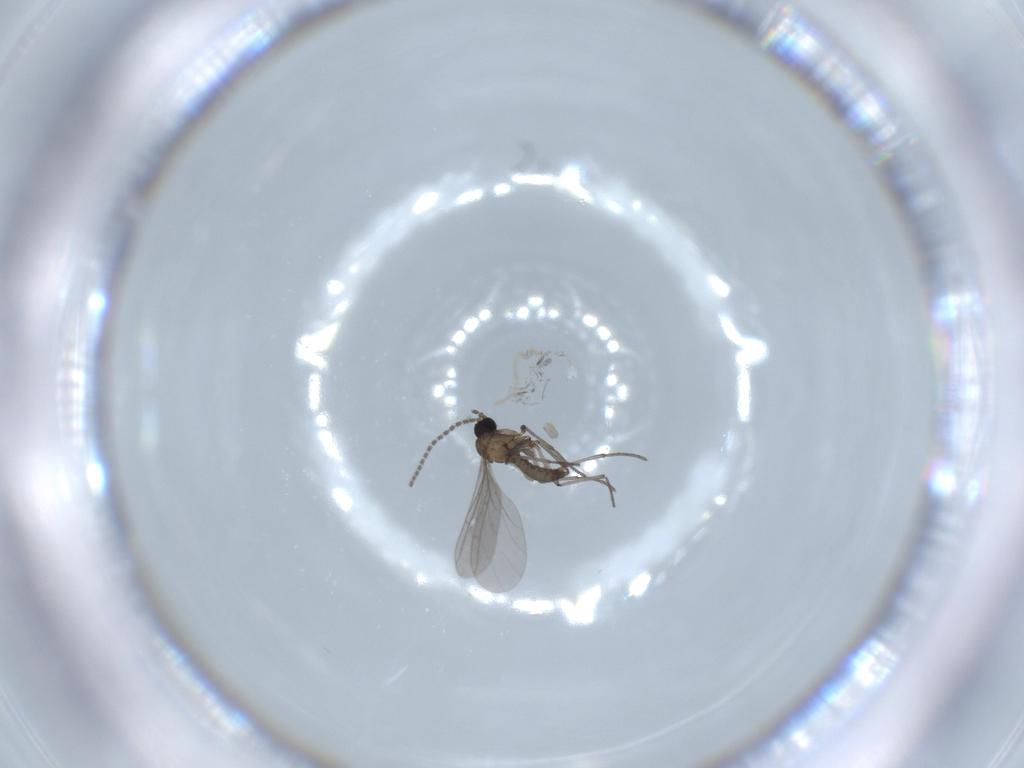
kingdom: Animalia
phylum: Arthropoda
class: Insecta
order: Diptera
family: Sciaridae
